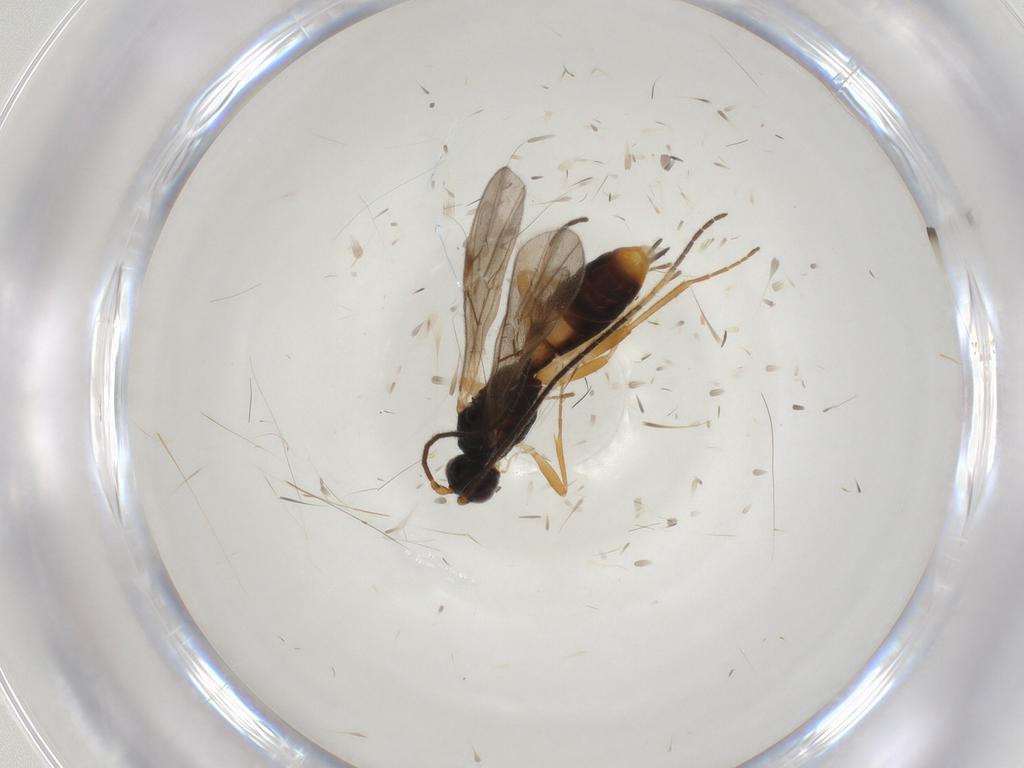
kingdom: Animalia
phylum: Arthropoda
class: Insecta
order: Hymenoptera
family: Braconidae
